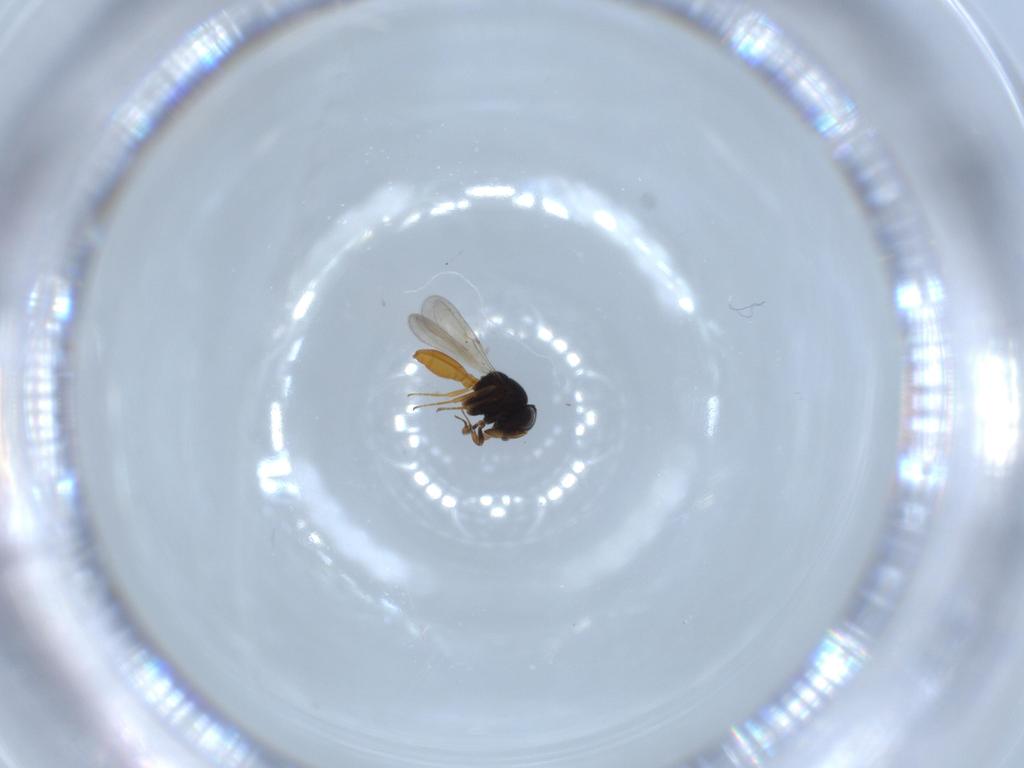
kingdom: Animalia
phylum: Arthropoda
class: Insecta
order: Hymenoptera
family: Scelionidae
